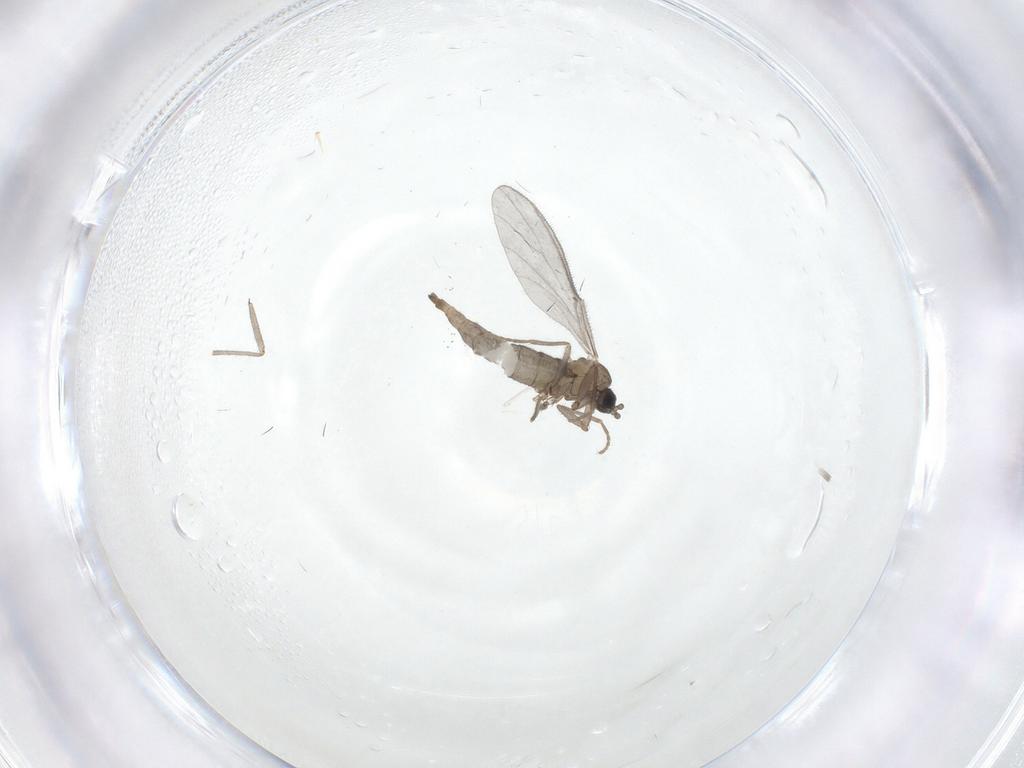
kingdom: Animalia
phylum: Arthropoda
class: Insecta
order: Diptera
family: Sciaridae
